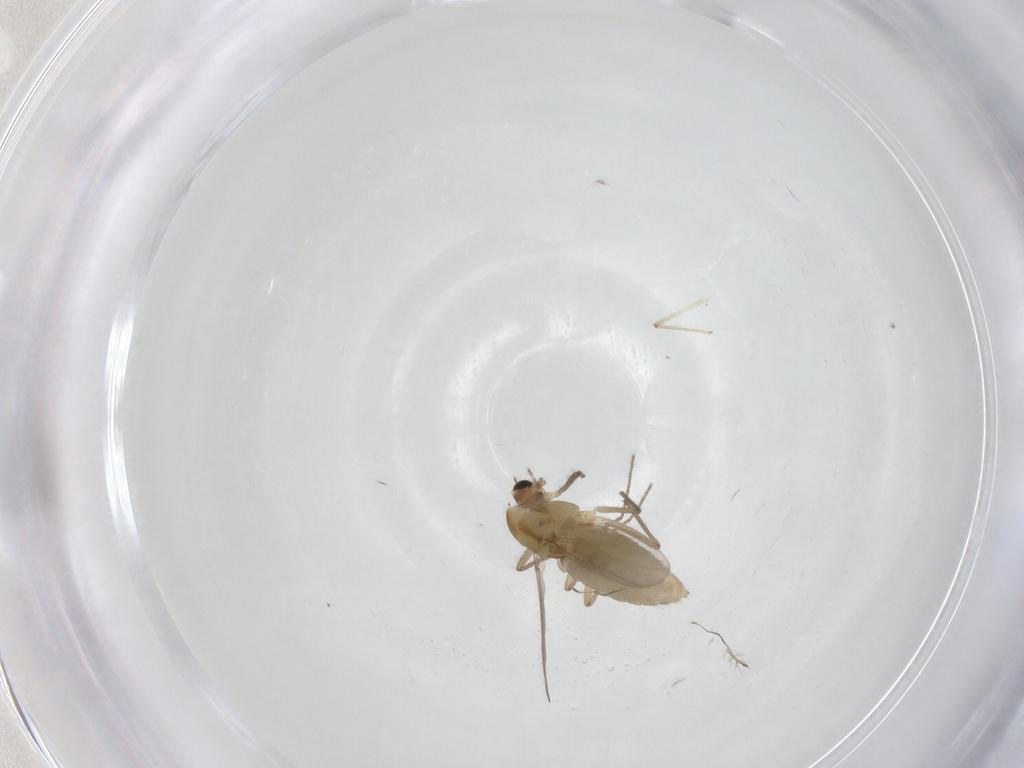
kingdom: Animalia
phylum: Arthropoda
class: Insecta
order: Diptera
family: Chironomidae
